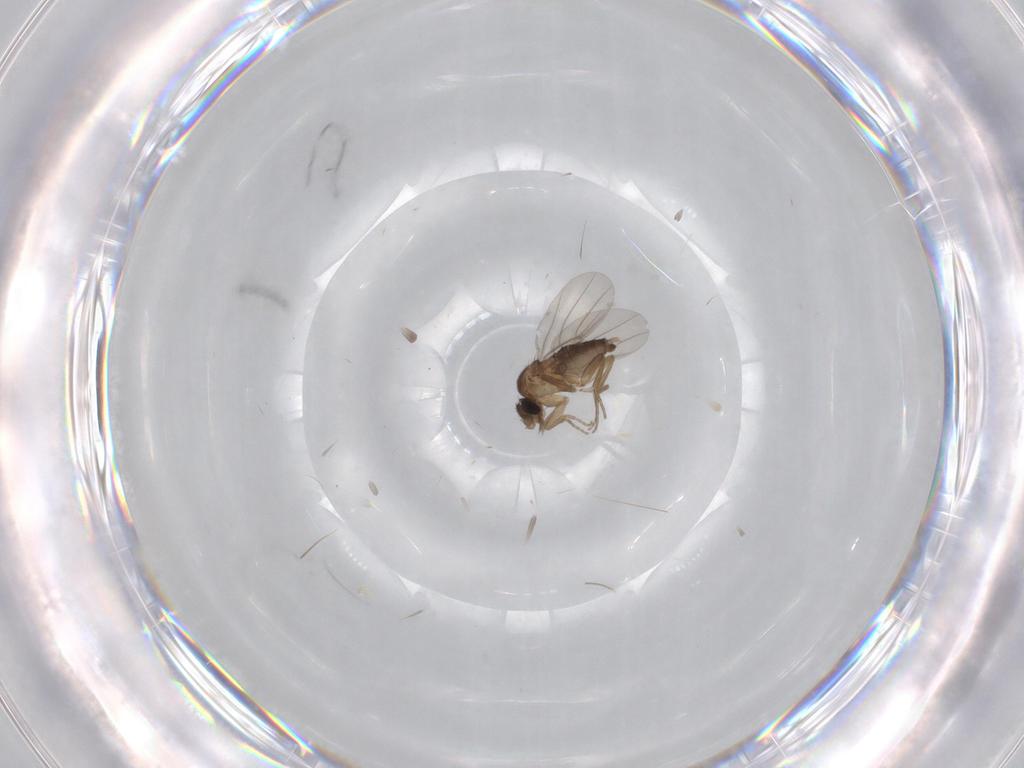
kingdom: Animalia
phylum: Arthropoda
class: Insecta
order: Diptera
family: Phoridae
